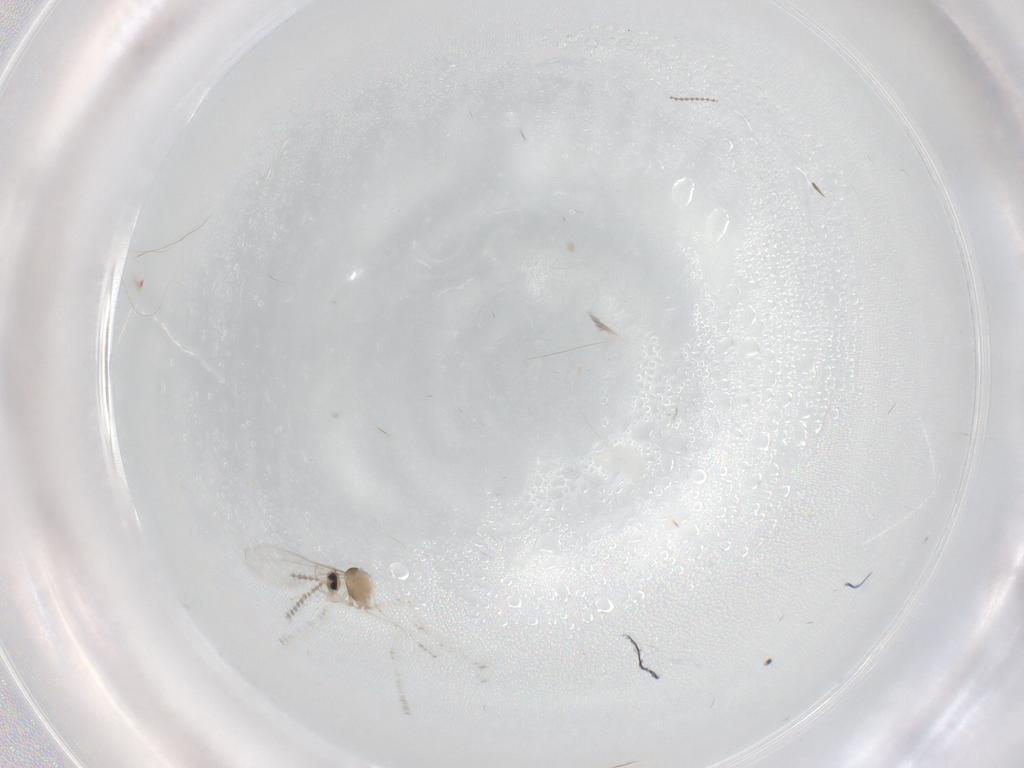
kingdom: Animalia
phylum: Arthropoda
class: Insecta
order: Diptera
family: Cecidomyiidae
